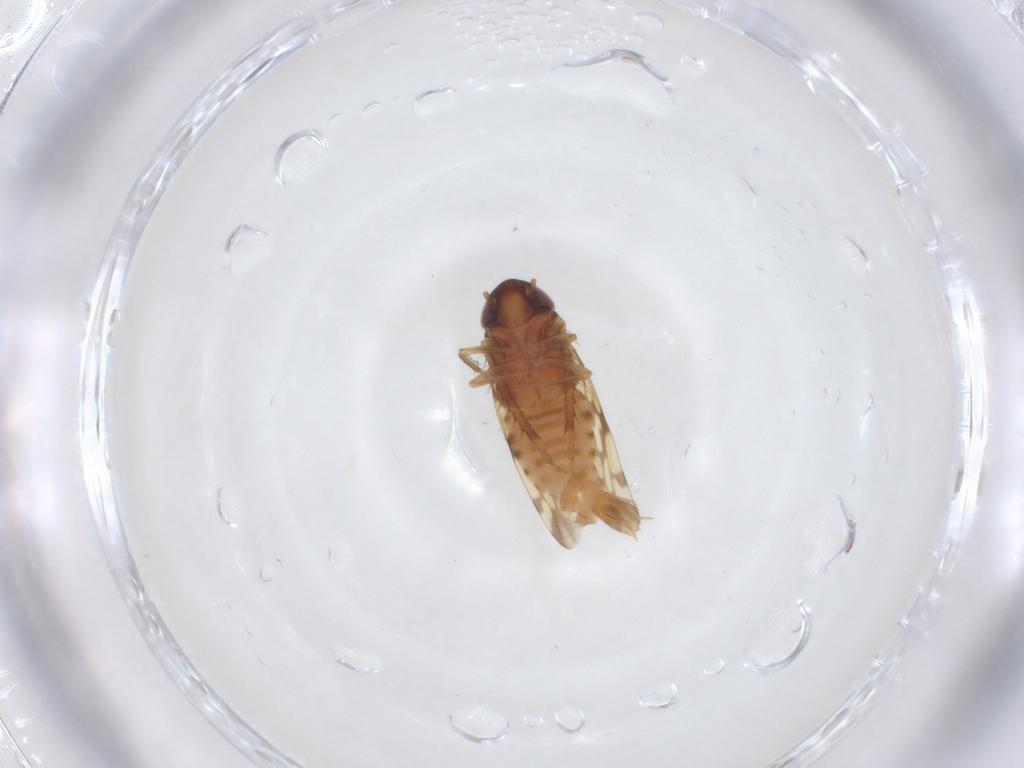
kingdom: Animalia
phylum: Arthropoda
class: Insecta
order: Hemiptera
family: Cicadellidae
